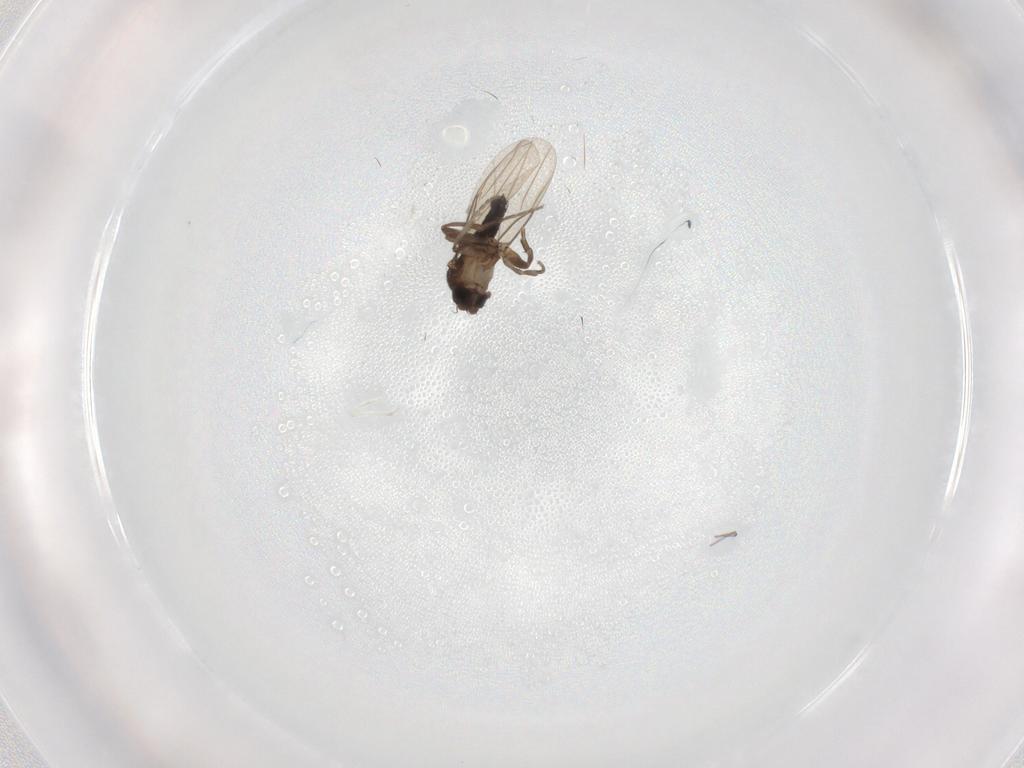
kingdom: Animalia
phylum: Arthropoda
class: Insecta
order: Diptera
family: Phoridae
